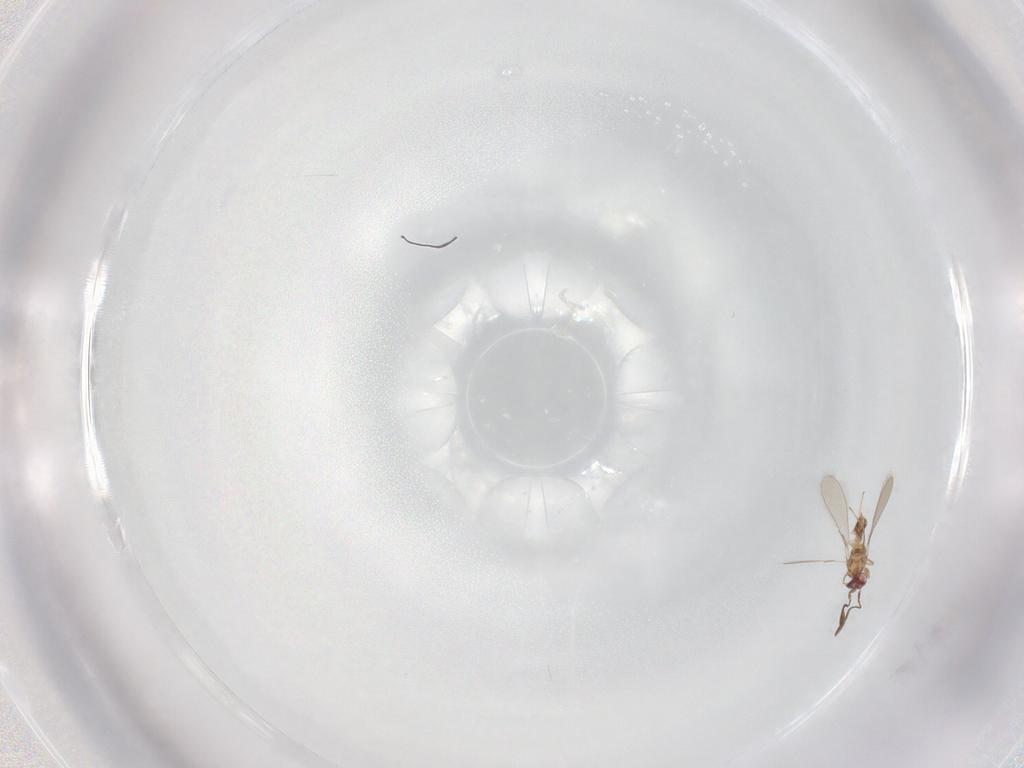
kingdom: Animalia
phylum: Arthropoda
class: Insecta
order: Hymenoptera
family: Mymaridae
